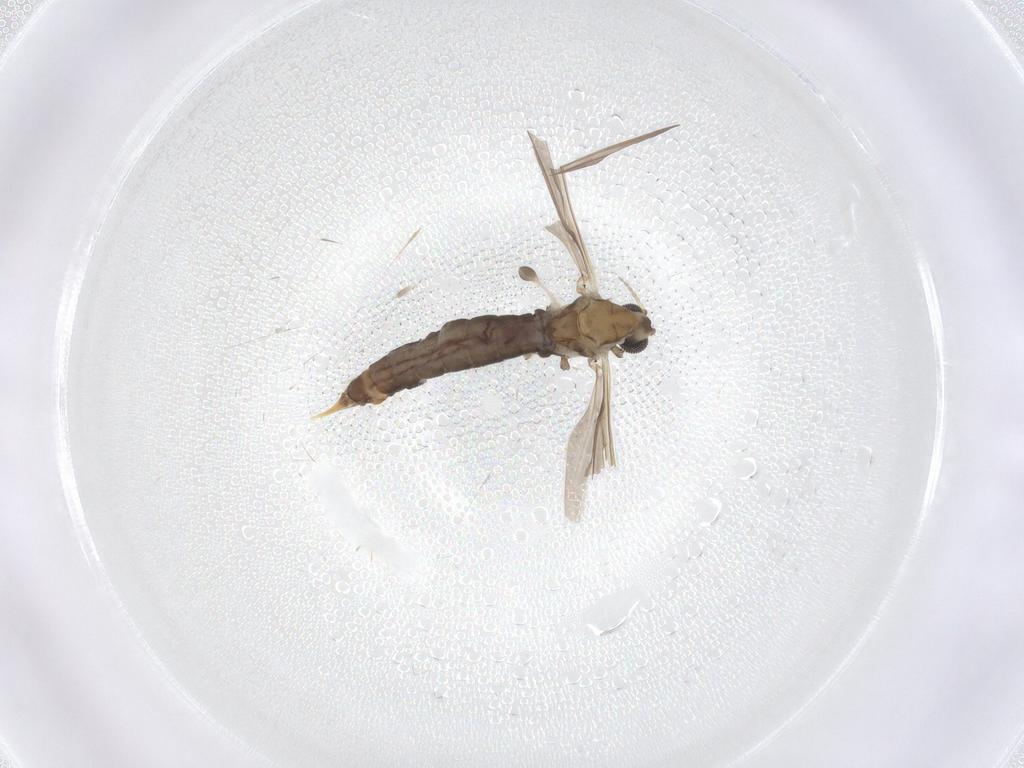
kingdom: Animalia
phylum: Arthropoda
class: Insecta
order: Diptera
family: Limoniidae
